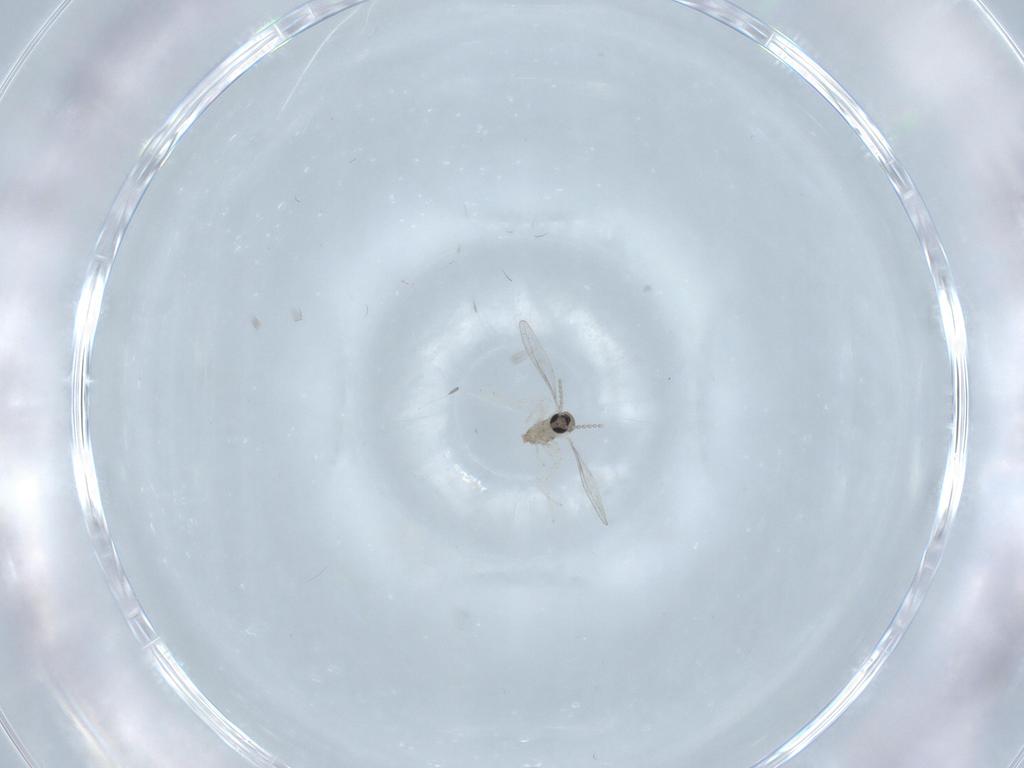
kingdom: Animalia
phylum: Arthropoda
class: Insecta
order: Diptera
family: Cecidomyiidae
